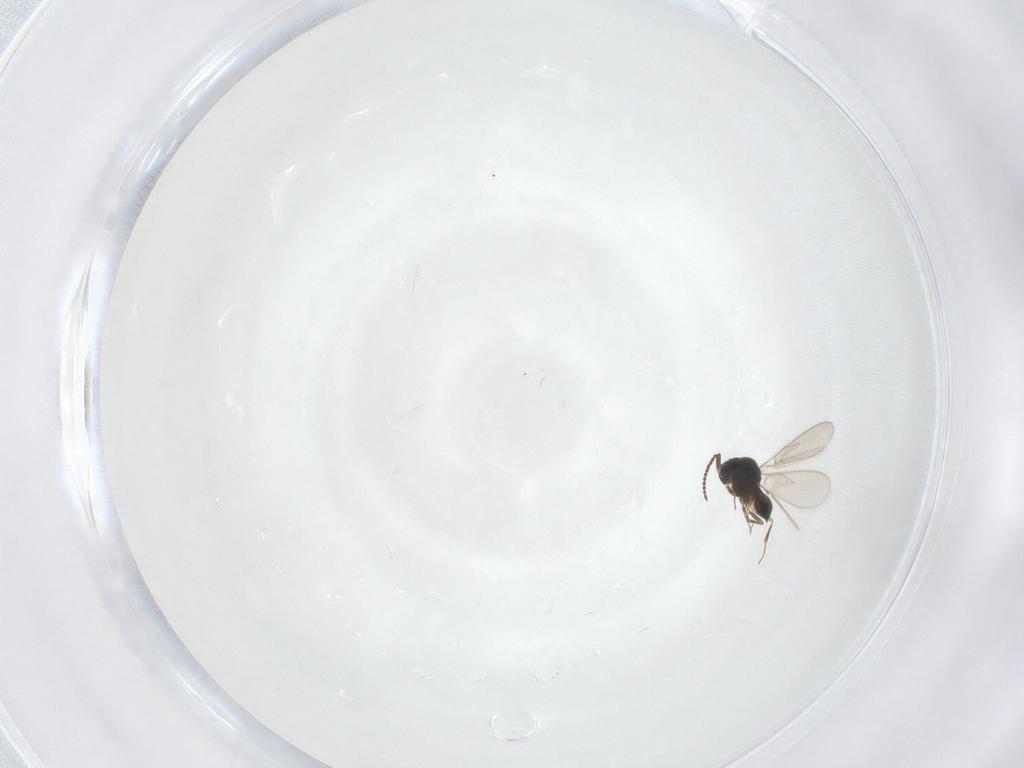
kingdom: Animalia
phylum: Arthropoda
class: Insecta
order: Hymenoptera
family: Scelionidae
